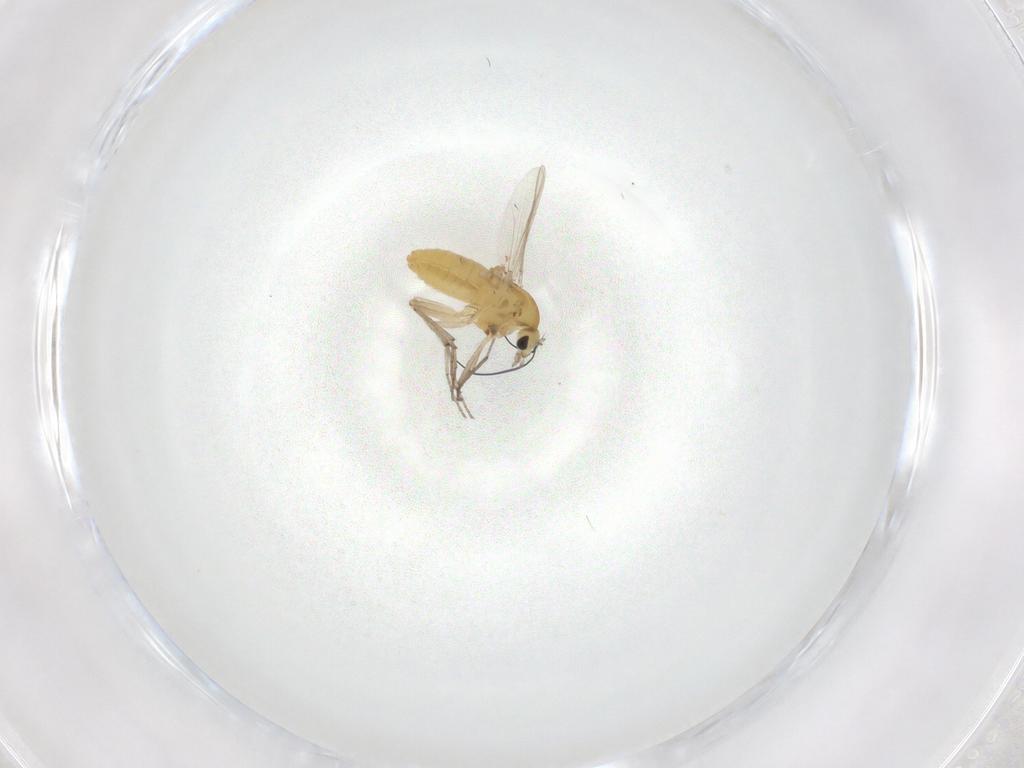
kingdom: Animalia
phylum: Arthropoda
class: Insecta
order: Diptera
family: Chironomidae
